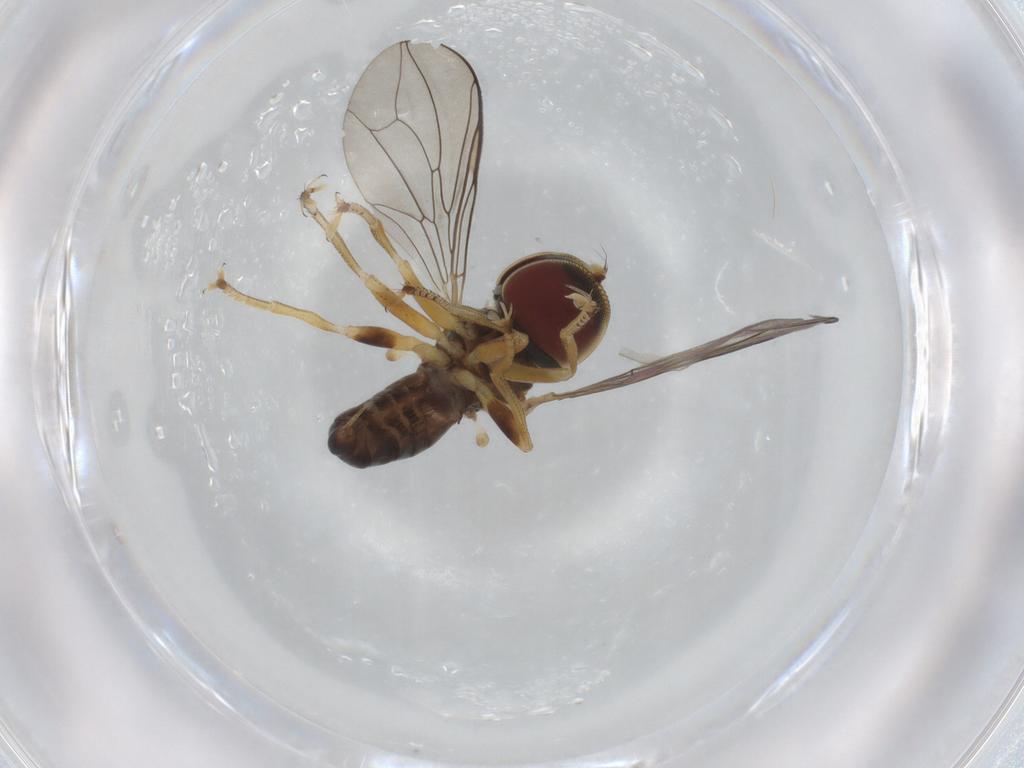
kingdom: Animalia
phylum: Arthropoda
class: Insecta
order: Diptera
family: Pipunculidae
